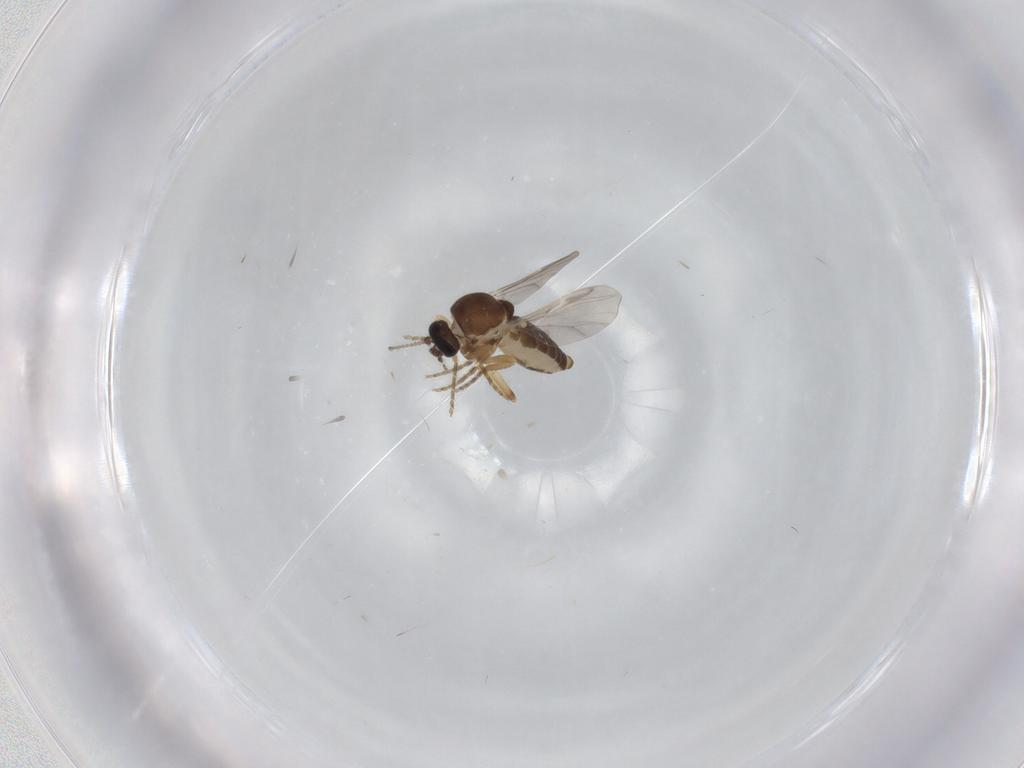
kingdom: Animalia
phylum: Arthropoda
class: Insecta
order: Diptera
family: Ceratopogonidae
